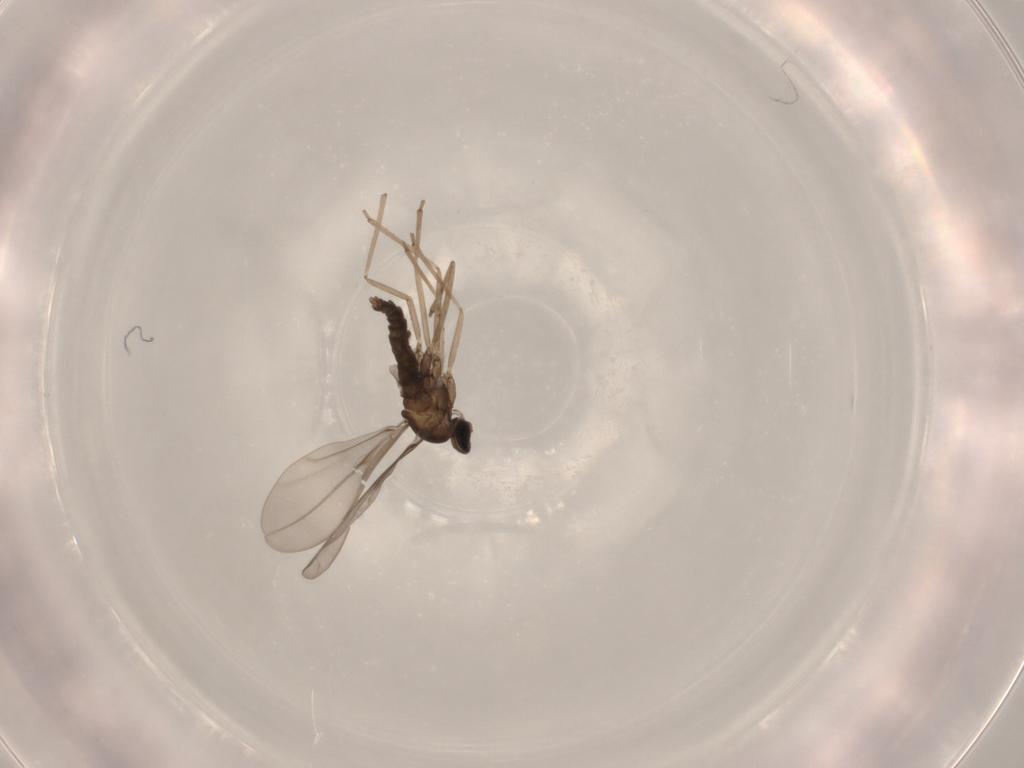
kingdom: Animalia
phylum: Arthropoda
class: Insecta
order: Diptera
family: Cecidomyiidae
